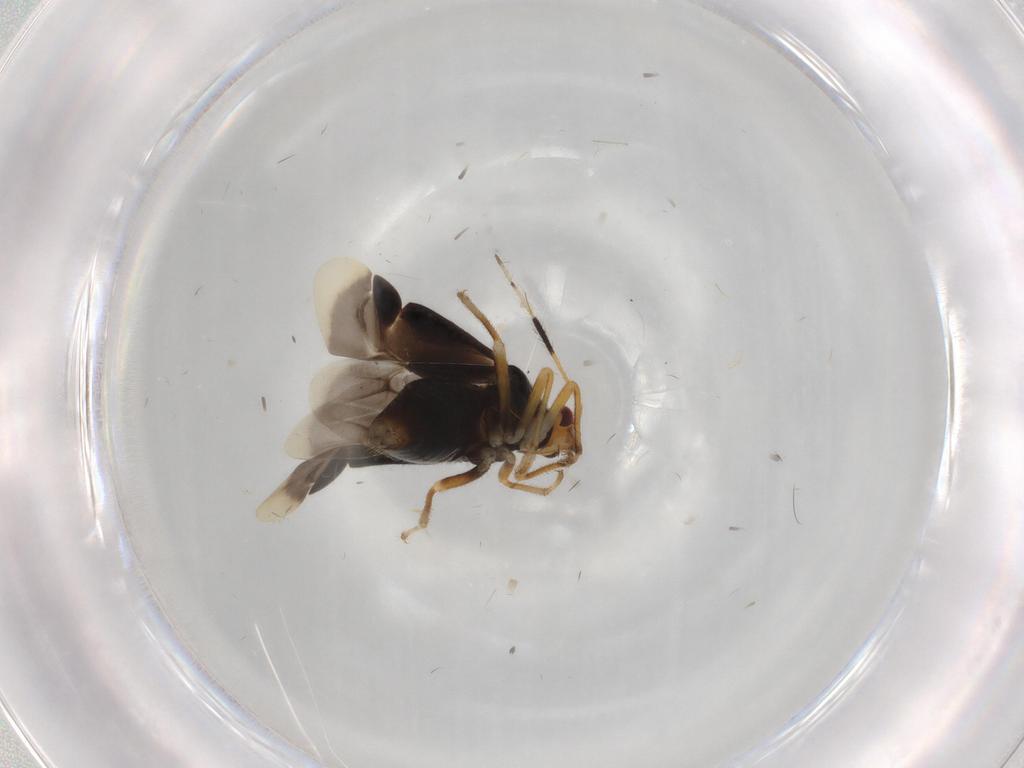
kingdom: Animalia
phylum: Arthropoda
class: Insecta
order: Hemiptera
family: Miridae
